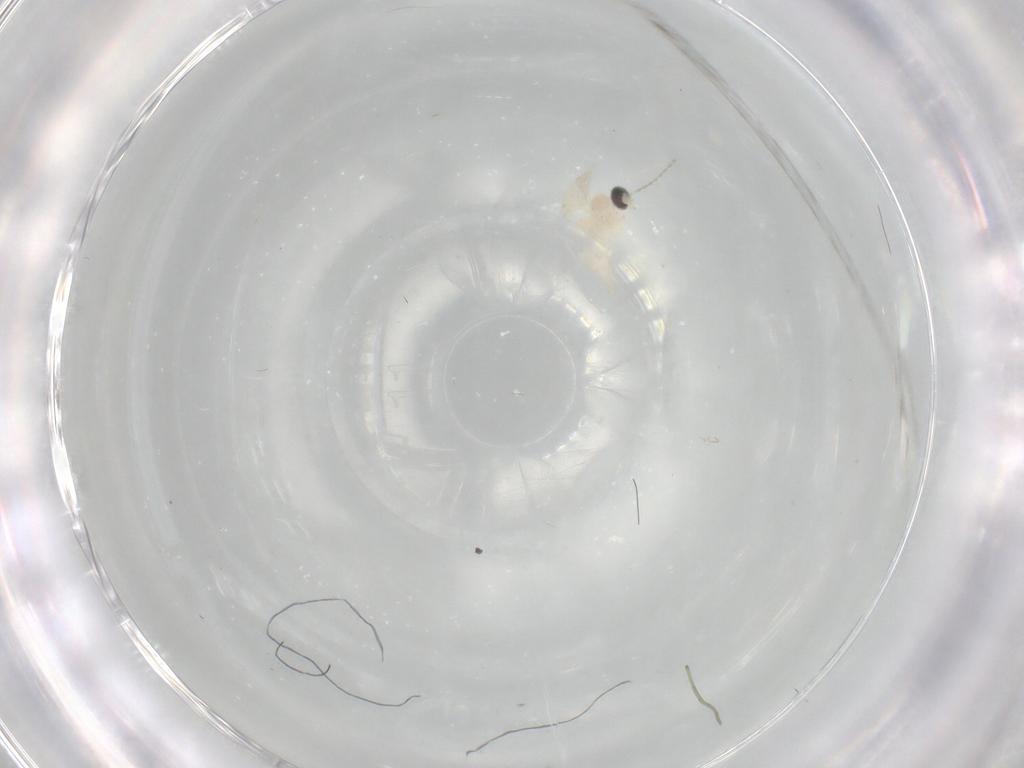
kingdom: Animalia
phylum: Arthropoda
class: Insecta
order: Diptera
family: Cecidomyiidae
